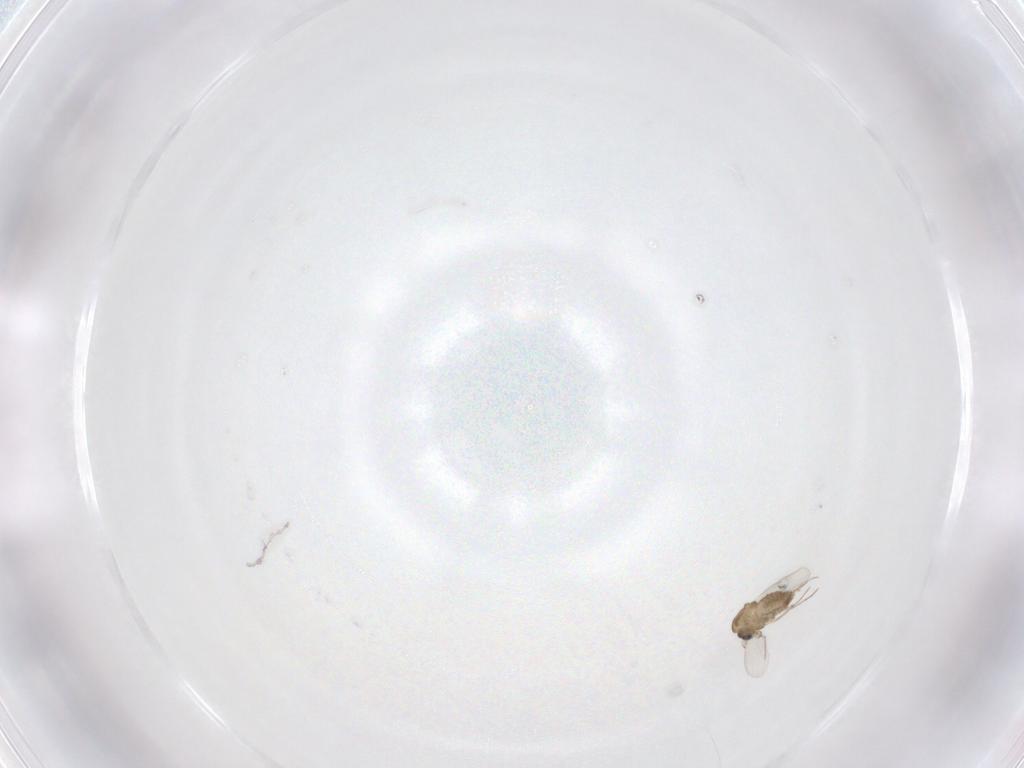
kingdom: Animalia
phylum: Arthropoda
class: Insecta
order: Diptera
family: Chironomidae
